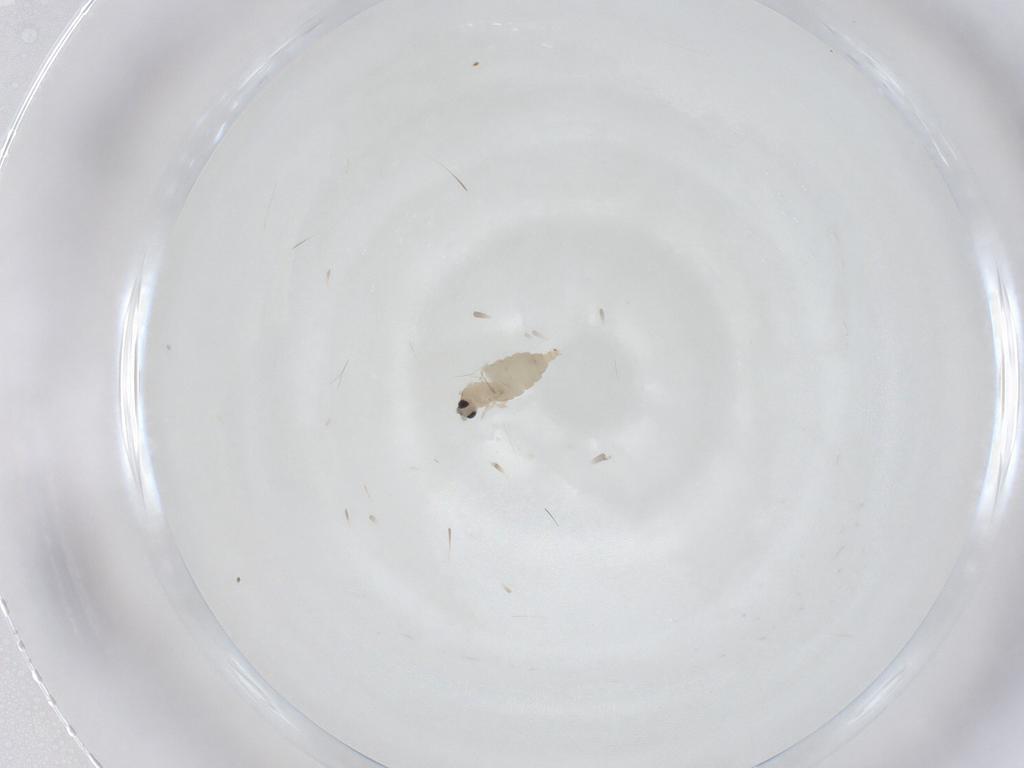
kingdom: Animalia
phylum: Arthropoda
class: Insecta
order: Diptera
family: Cecidomyiidae
